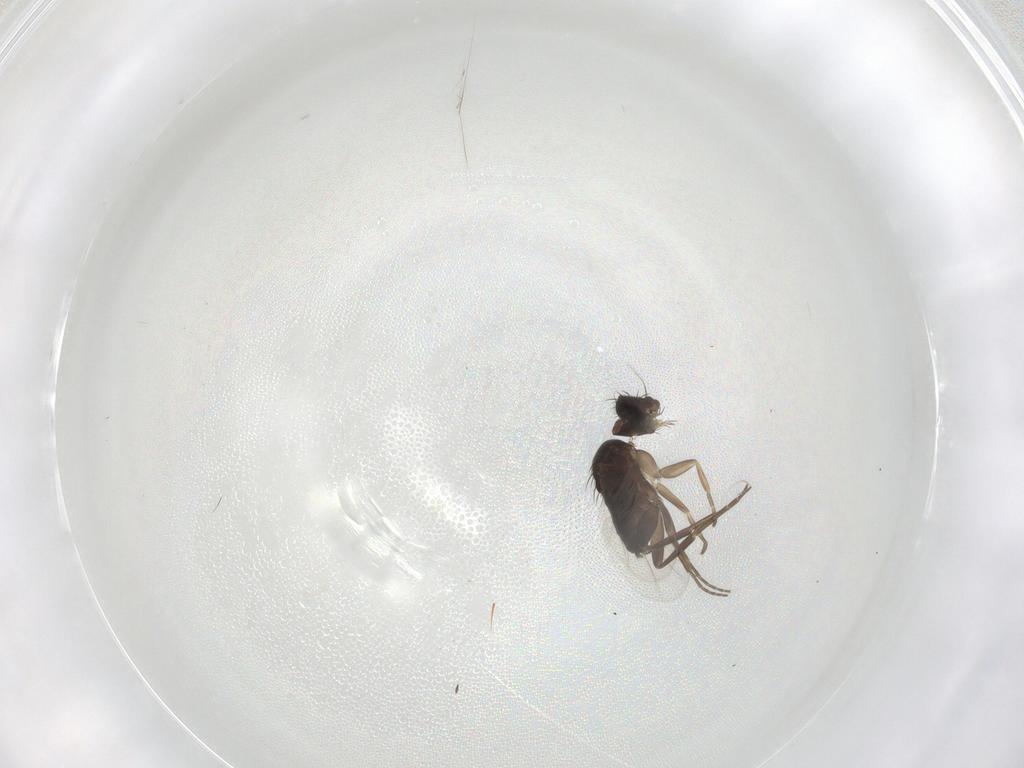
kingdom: Animalia
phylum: Arthropoda
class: Insecta
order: Diptera
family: Phoridae
